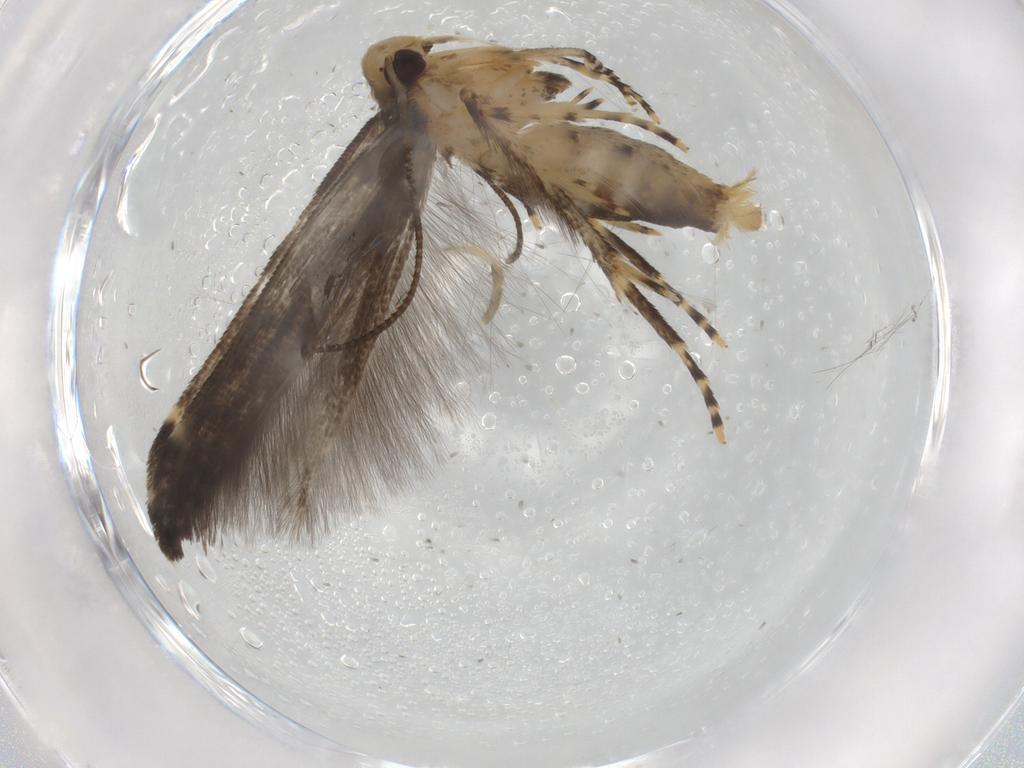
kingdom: Animalia
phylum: Arthropoda
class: Insecta
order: Lepidoptera
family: Cosmopterigidae
